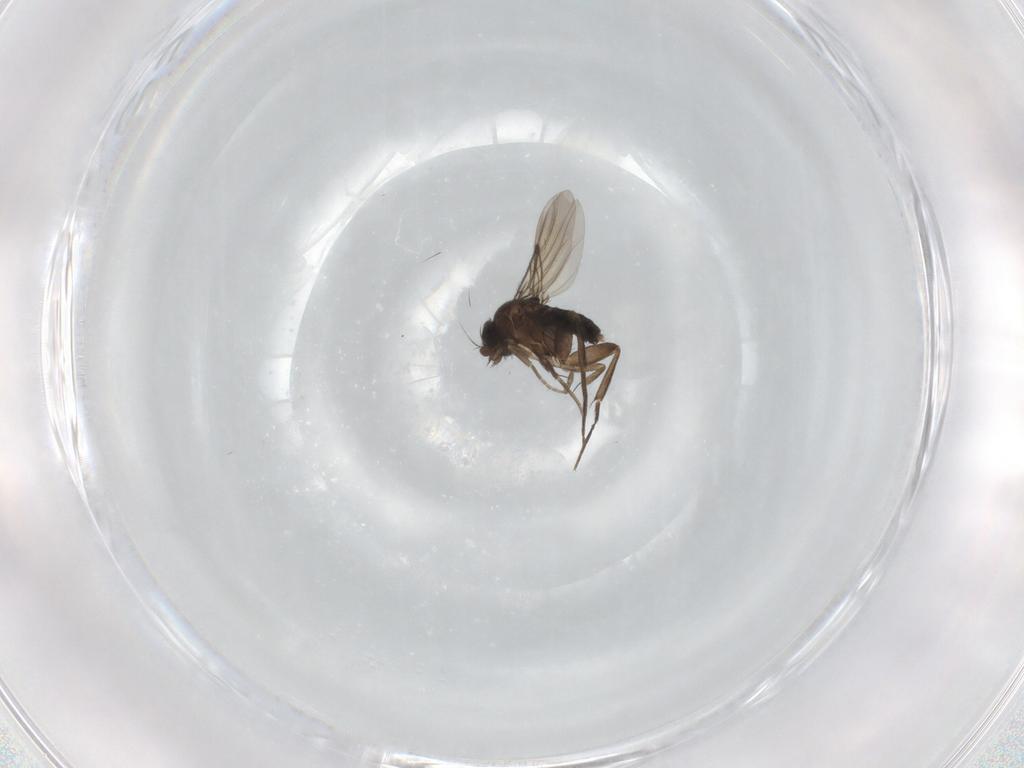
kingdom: Animalia
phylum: Arthropoda
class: Insecta
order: Diptera
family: Phoridae
